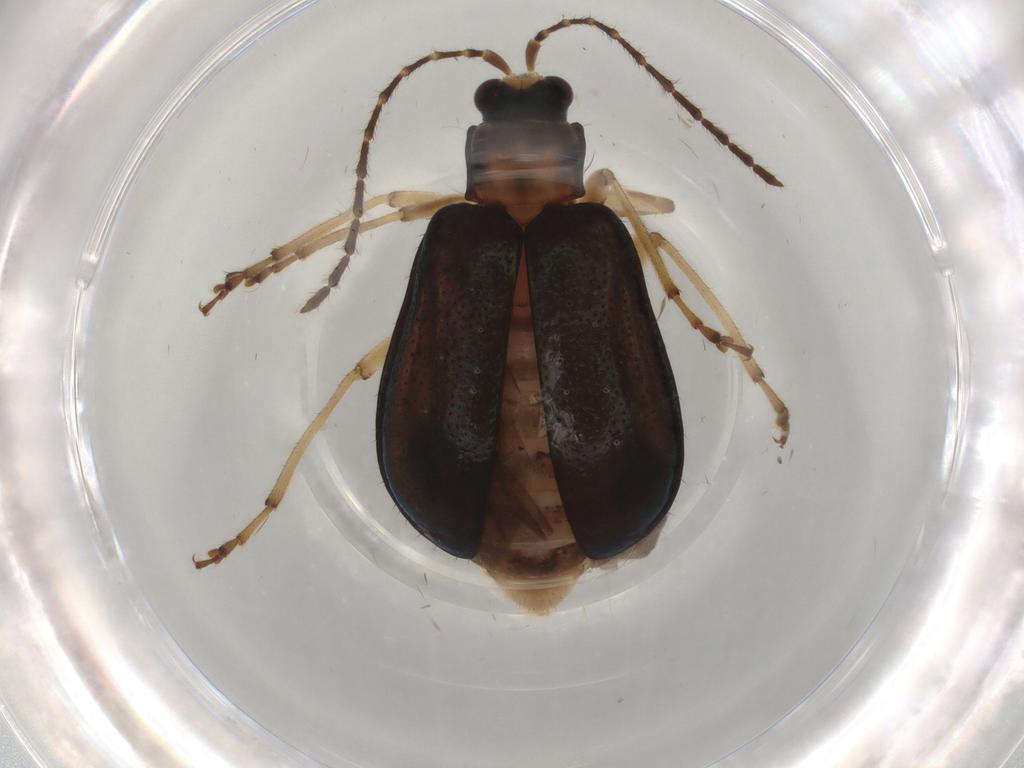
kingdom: Animalia
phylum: Arthropoda
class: Insecta
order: Coleoptera
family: Chrysomelidae
